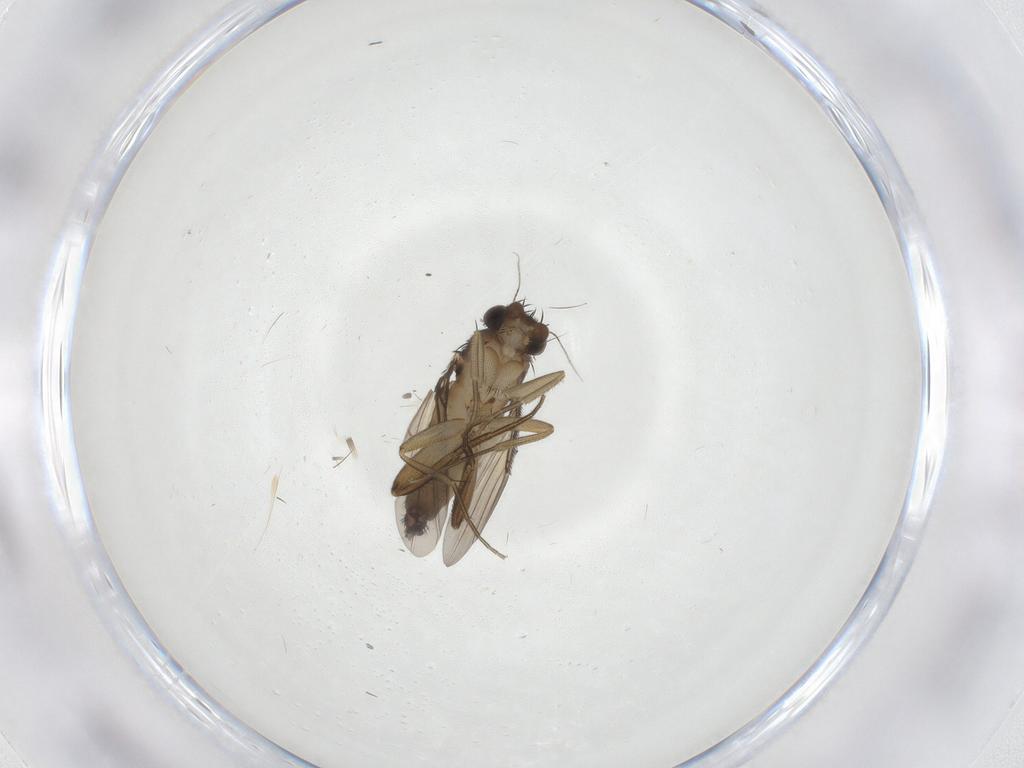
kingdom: Animalia
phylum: Arthropoda
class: Insecta
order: Diptera
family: Phoridae
